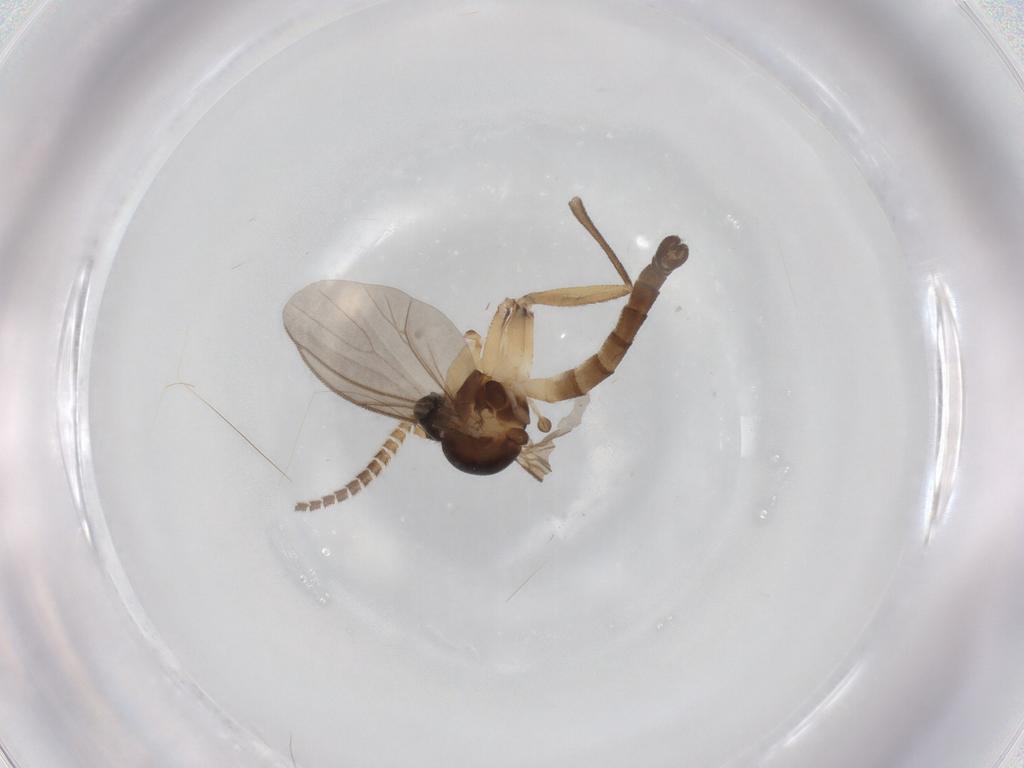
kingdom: Animalia
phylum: Arthropoda
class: Insecta
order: Diptera
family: Mycetophilidae
